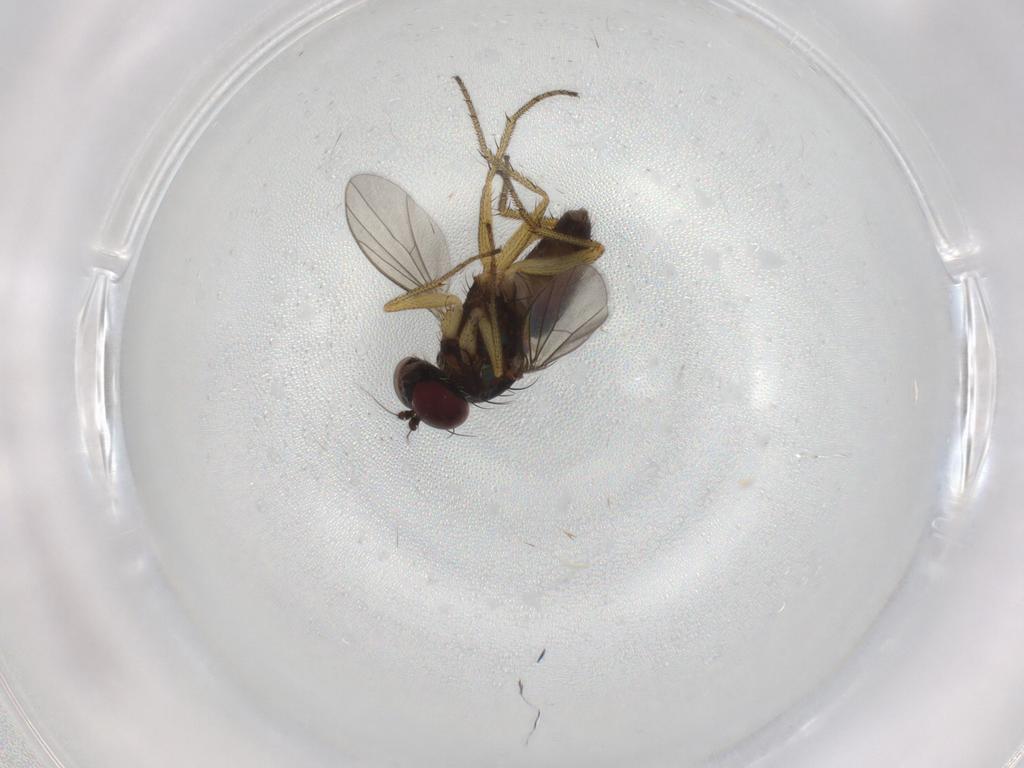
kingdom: Animalia
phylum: Arthropoda
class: Insecta
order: Diptera
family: Dolichopodidae
